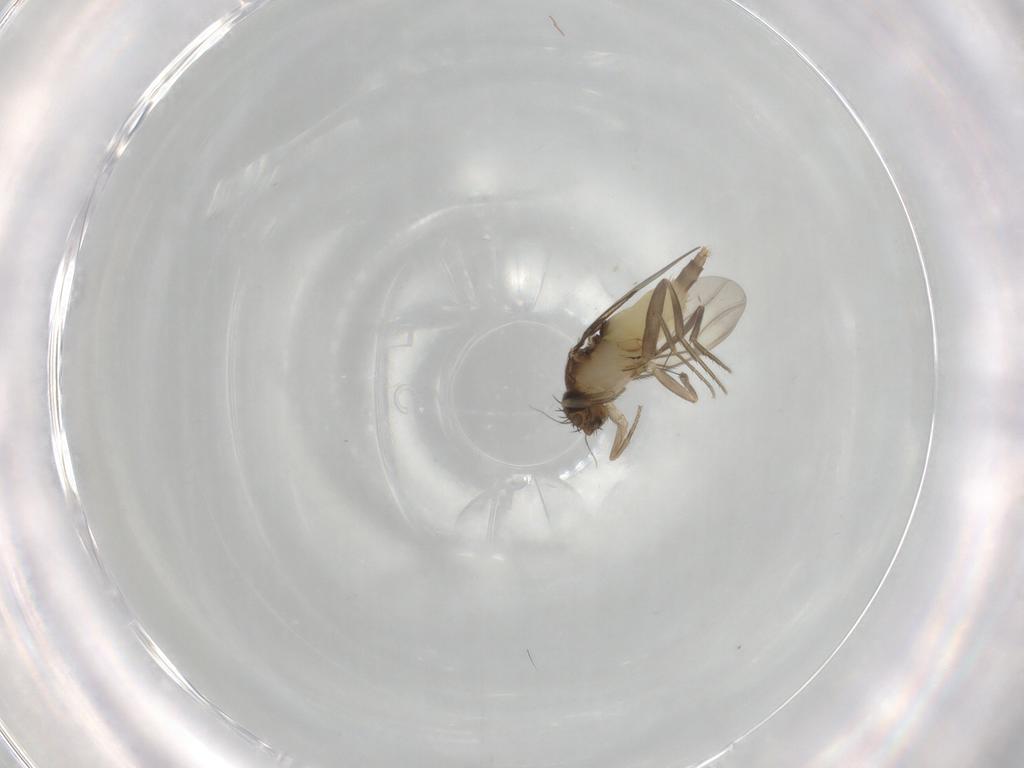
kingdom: Animalia
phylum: Arthropoda
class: Insecta
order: Diptera
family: Phoridae
